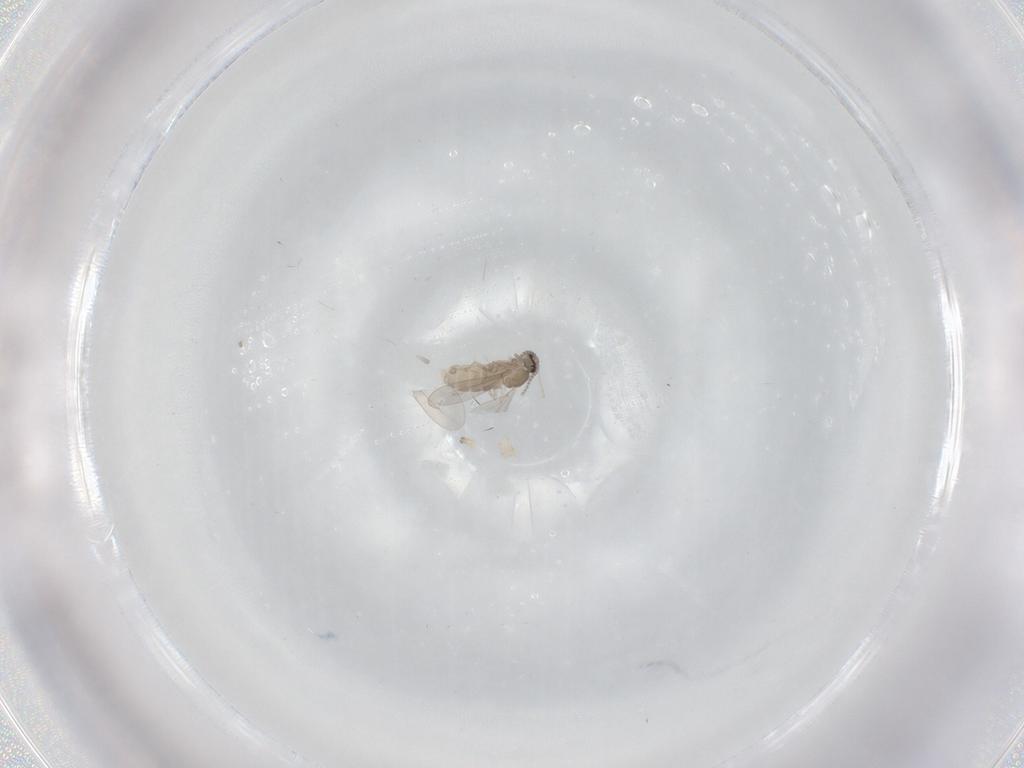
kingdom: Animalia
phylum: Arthropoda
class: Insecta
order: Diptera
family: Cecidomyiidae
